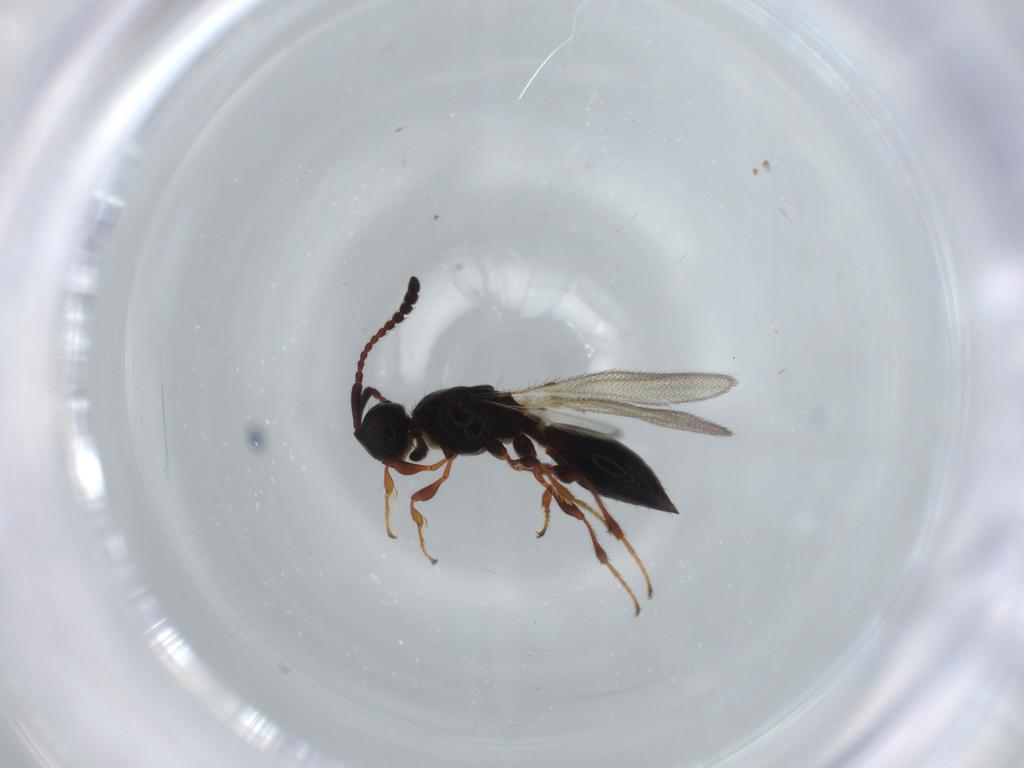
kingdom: Animalia
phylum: Arthropoda
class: Insecta
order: Hymenoptera
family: Diapriidae
